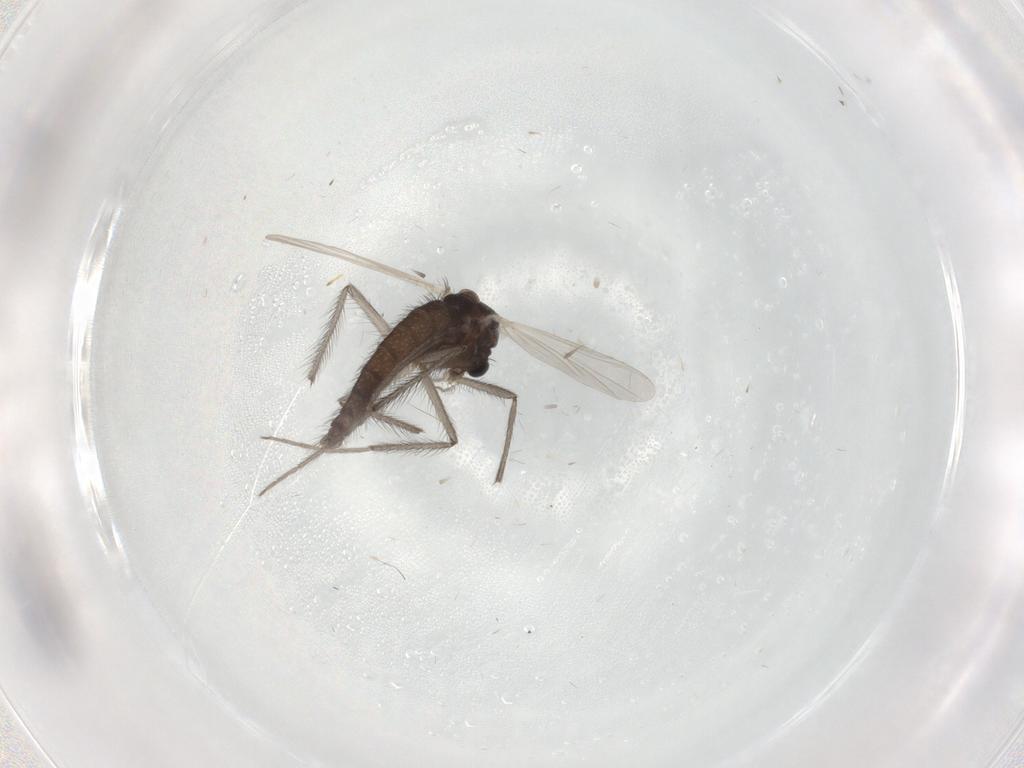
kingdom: Animalia
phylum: Arthropoda
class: Insecta
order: Diptera
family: Chironomidae
